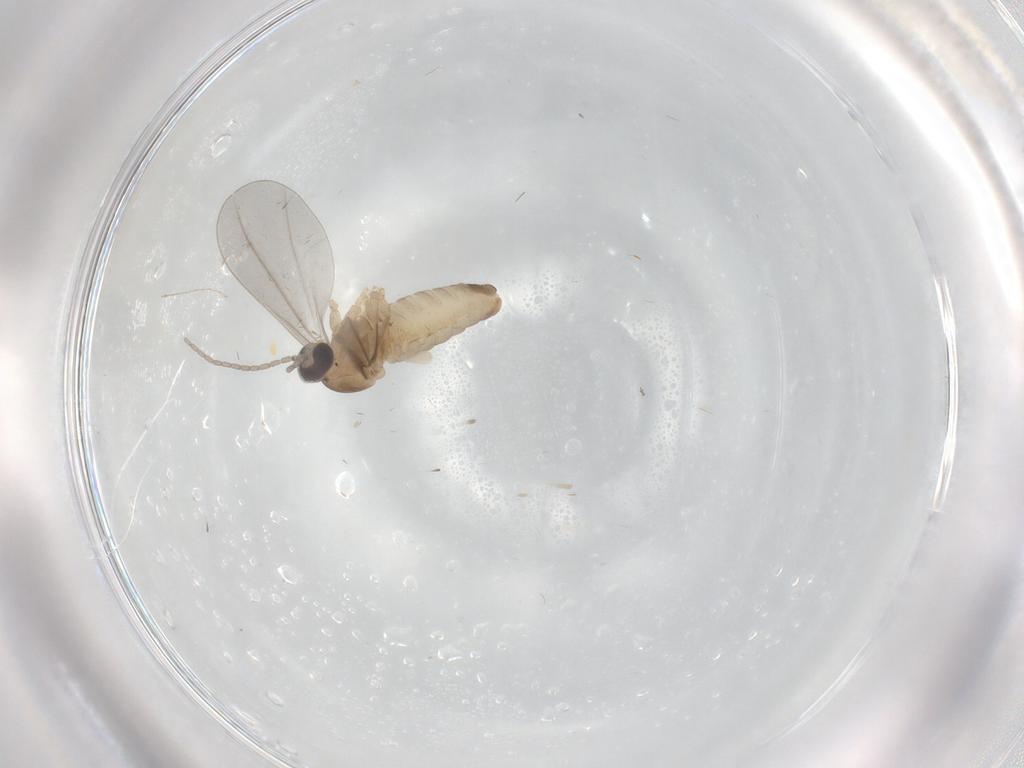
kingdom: Animalia
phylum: Arthropoda
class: Insecta
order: Diptera
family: Cecidomyiidae
